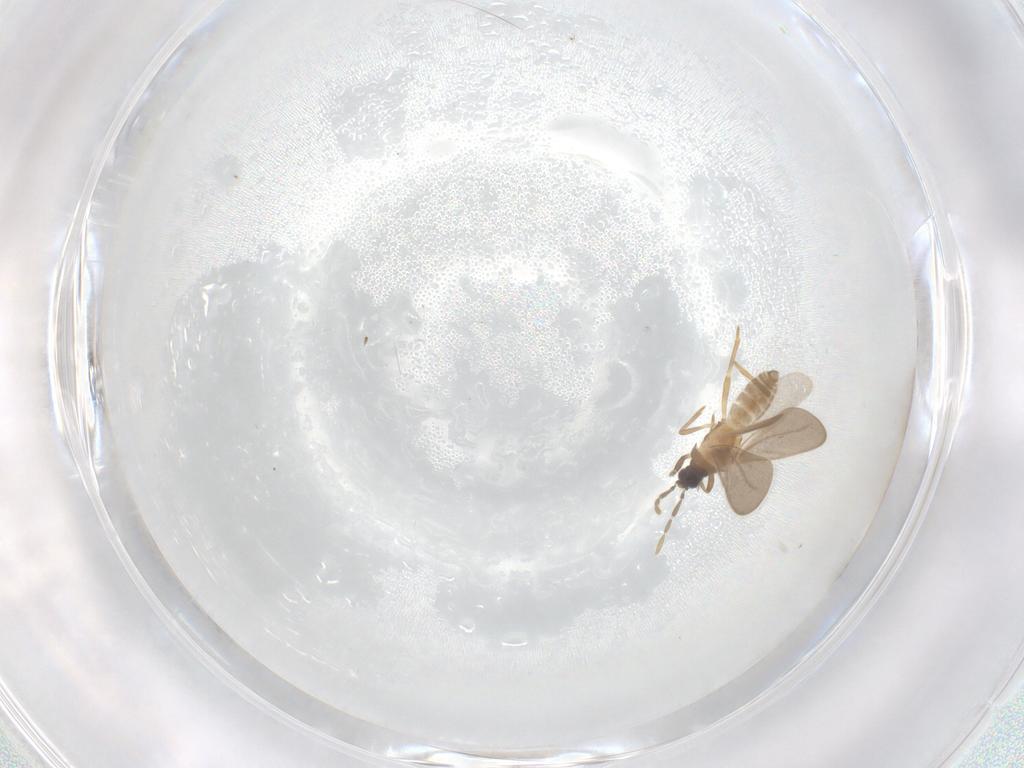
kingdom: Animalia
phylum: Arthropoda
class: Insecta
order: Hemiptera
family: Enicocephalidae
